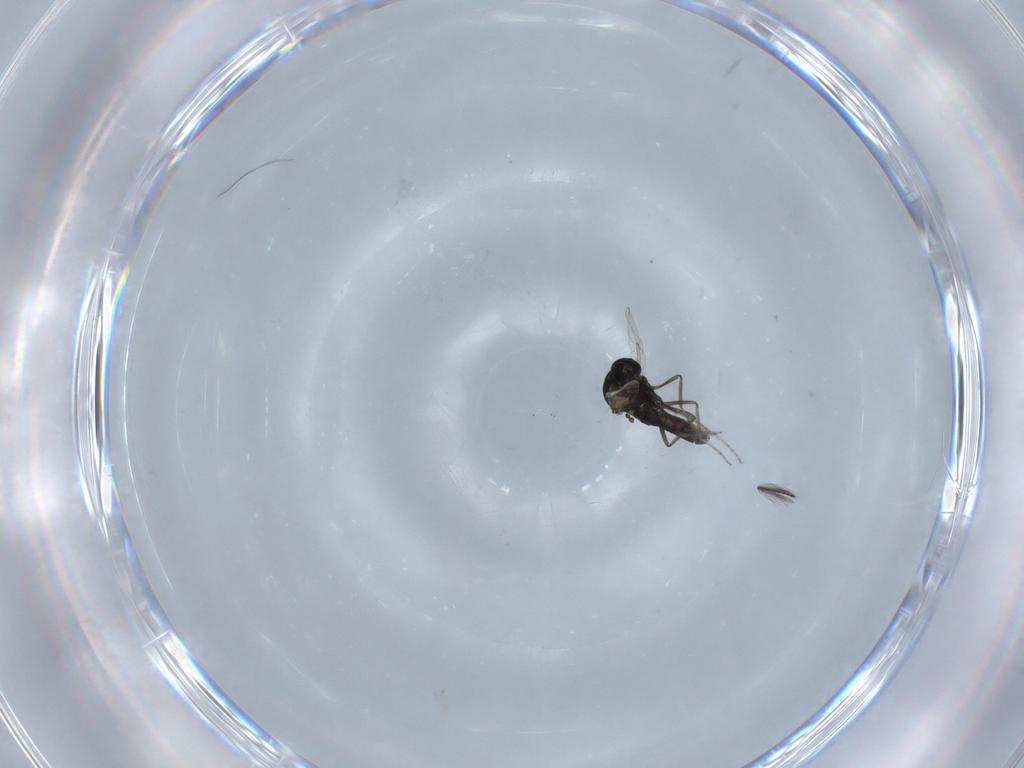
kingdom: Animalia
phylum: Arthropoda
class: Insecta
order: Diptera
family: Ceratopogonidae
